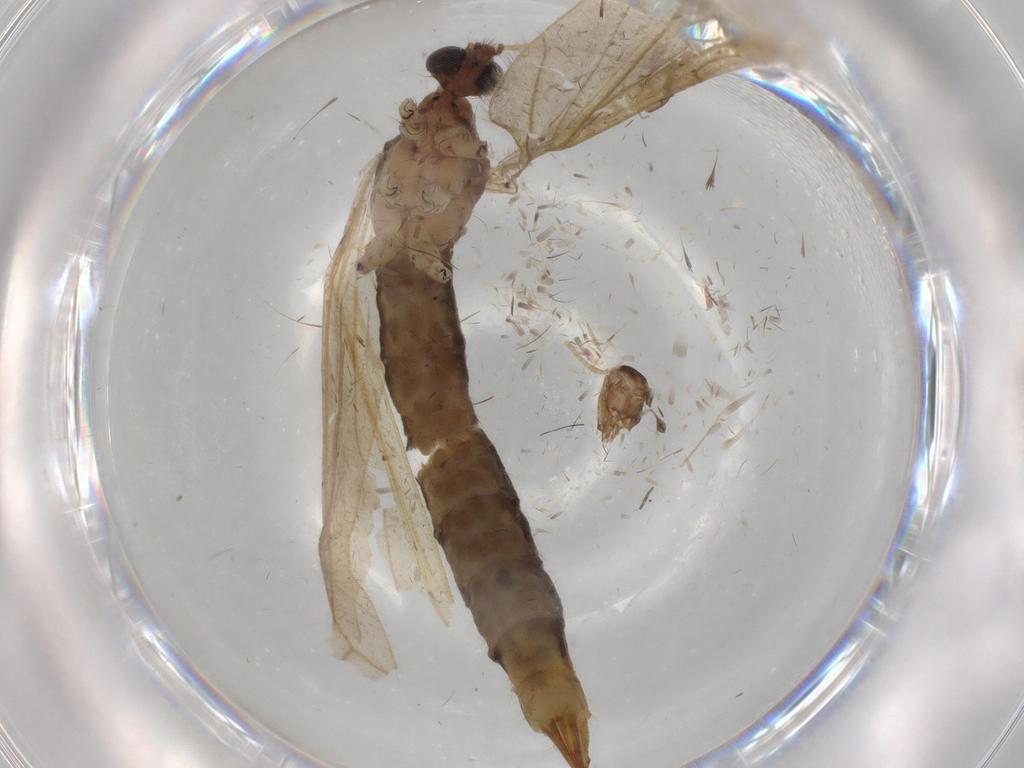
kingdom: Animalia
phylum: Arthropoda
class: Insecta
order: Diptera
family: Phoridae
